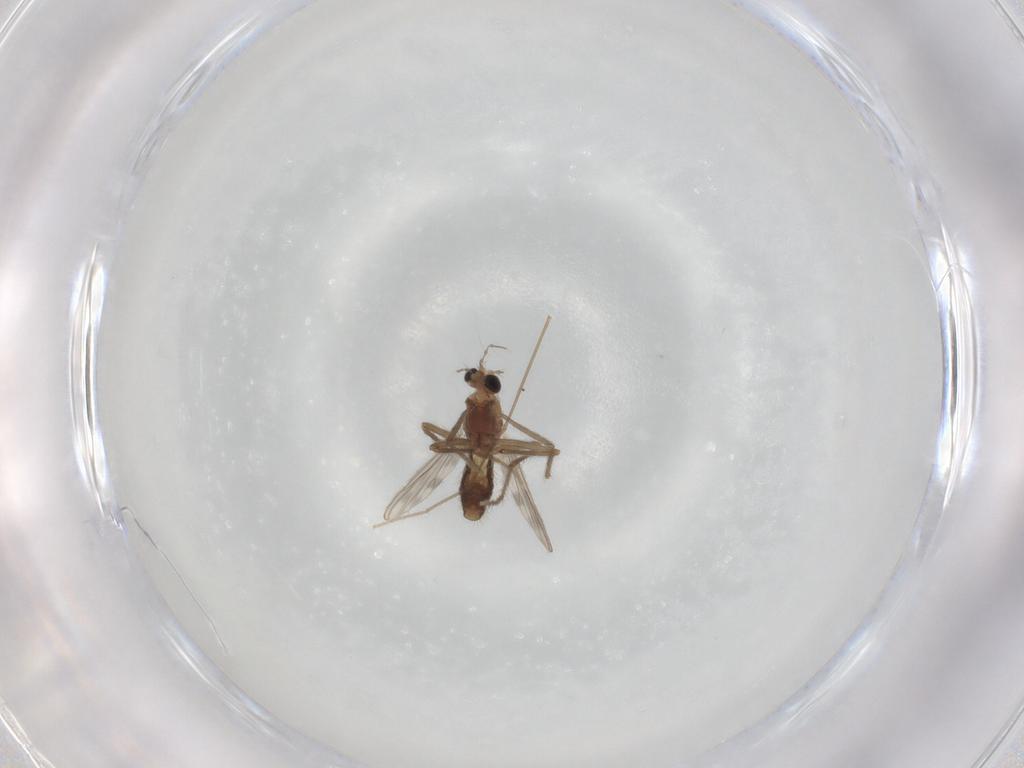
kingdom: Animalia
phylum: Arthropoda
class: Insecta
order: Diptera
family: Chironomidae
